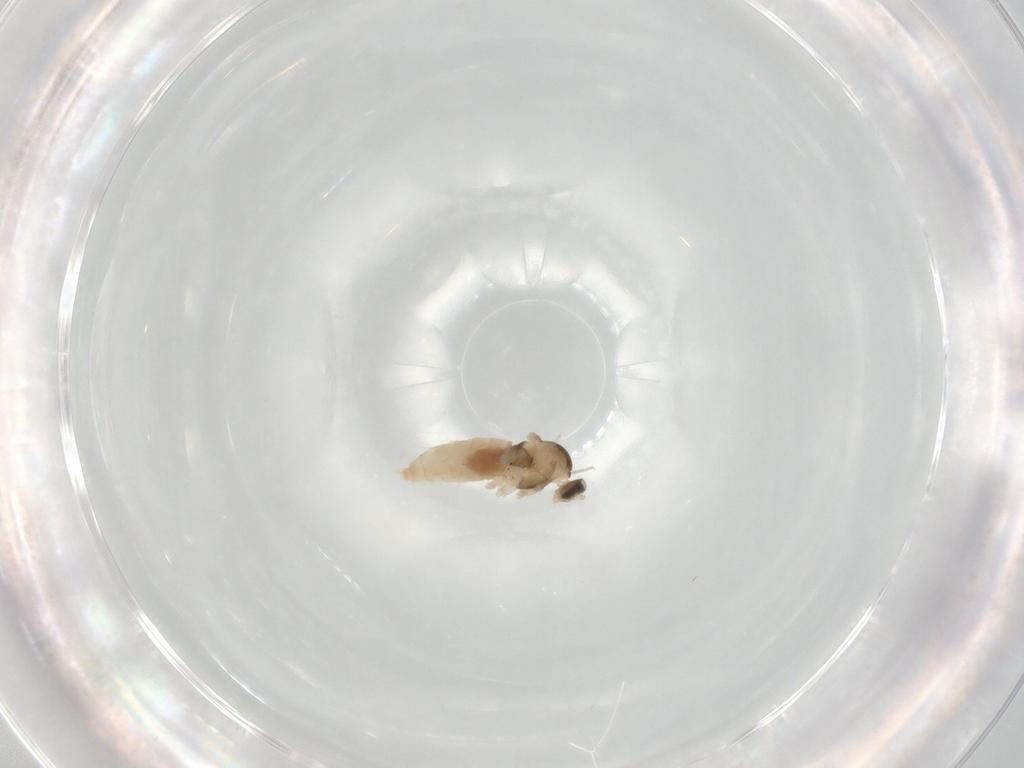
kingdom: Animalia
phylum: Arthropoda
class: Insecta
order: Diptera
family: Cecidomyiidae
